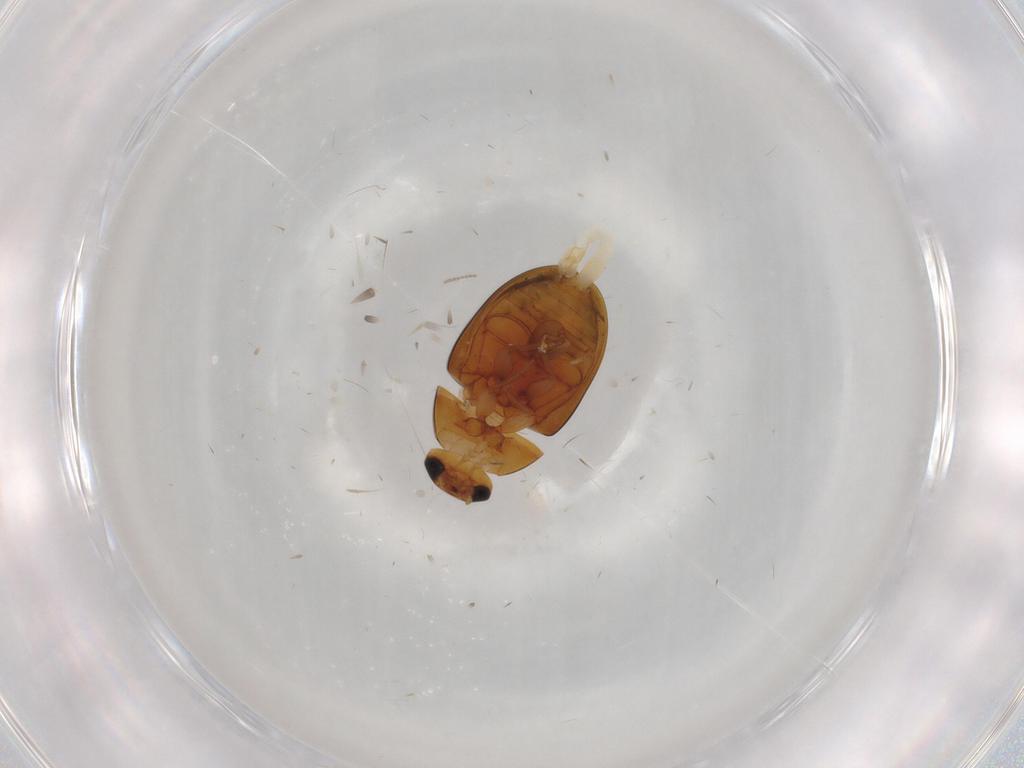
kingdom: Animalia
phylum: Arthropoda
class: Insecta
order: Coleoptera
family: Phalacridae
